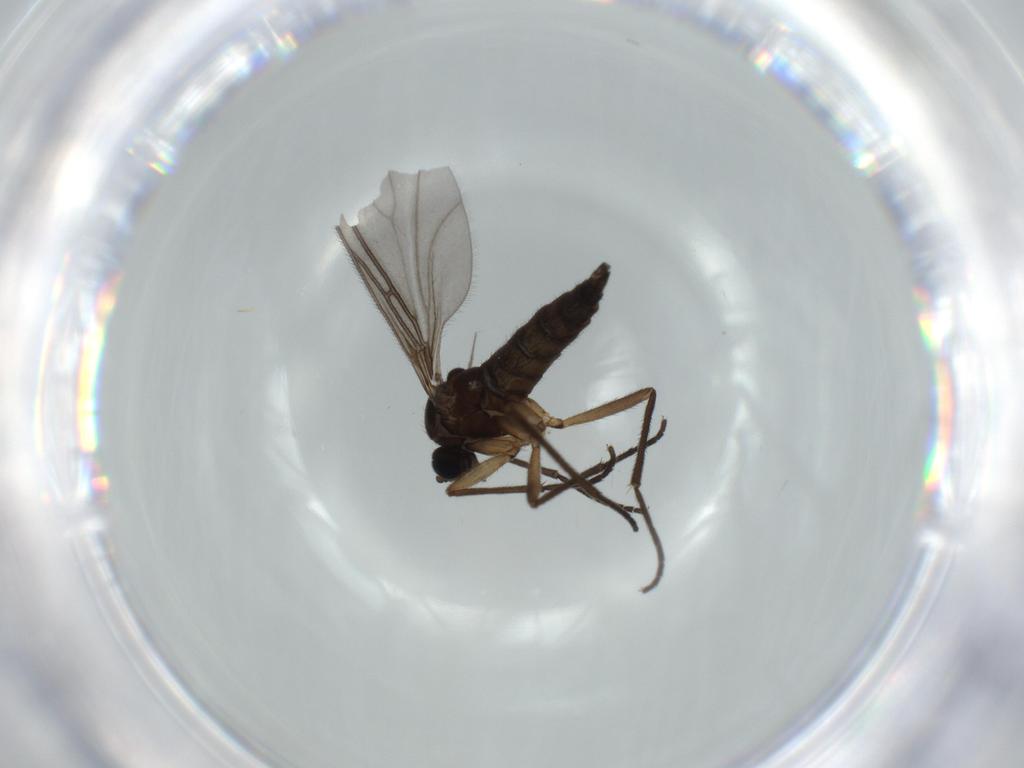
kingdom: Animalia
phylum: Arthropoda
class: Insecta
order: Diptera
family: Sciaridae
